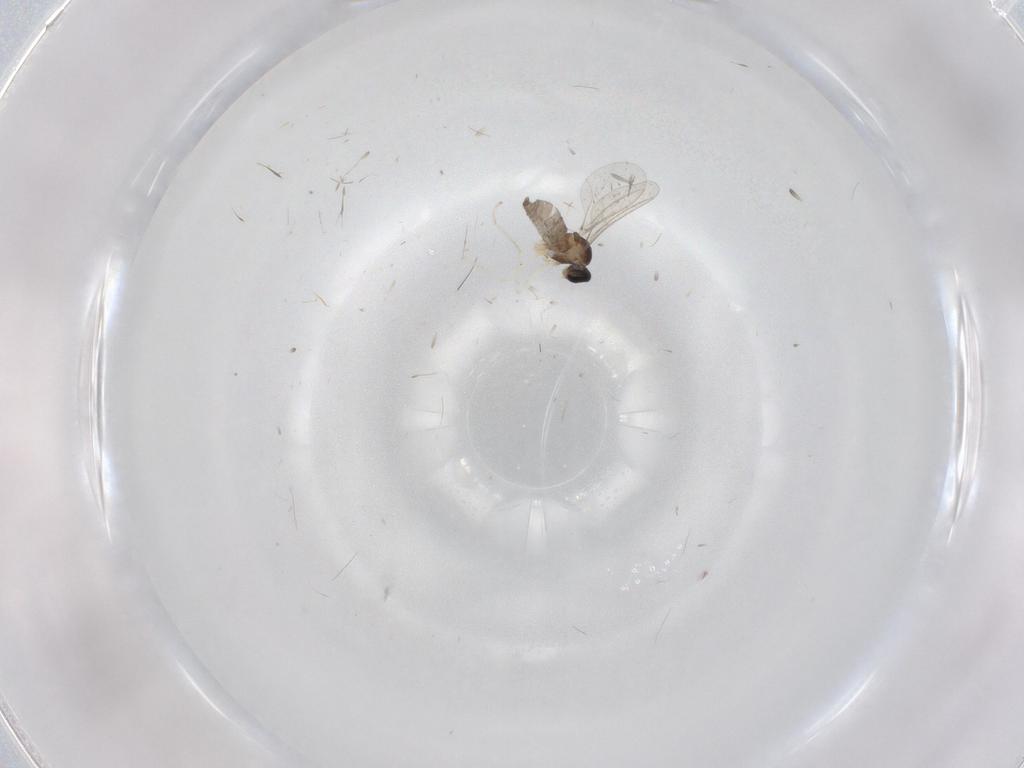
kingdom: Animalia
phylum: Arthropoda
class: Insecta
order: Diptera
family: Cecidomyiidae
